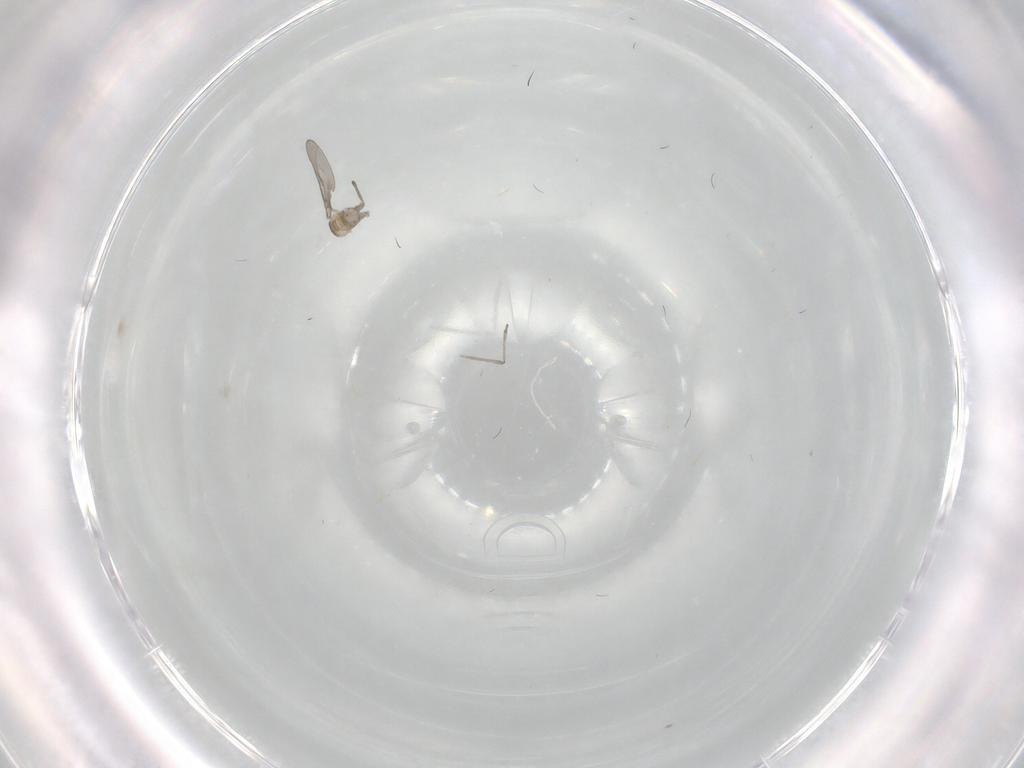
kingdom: Animalia
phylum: Arthropoda
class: Insecta
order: Diptera
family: Cecidomyiidae
